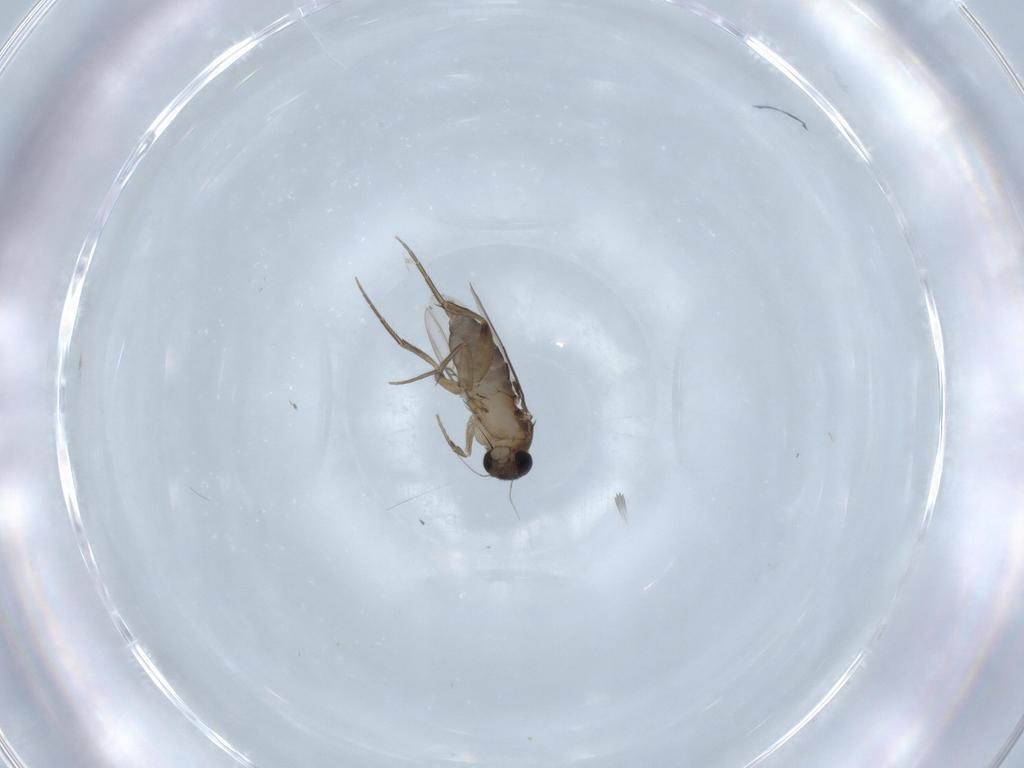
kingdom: Animalia
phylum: Arthropoda
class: Insecta
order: Diptera
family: Phoridae
